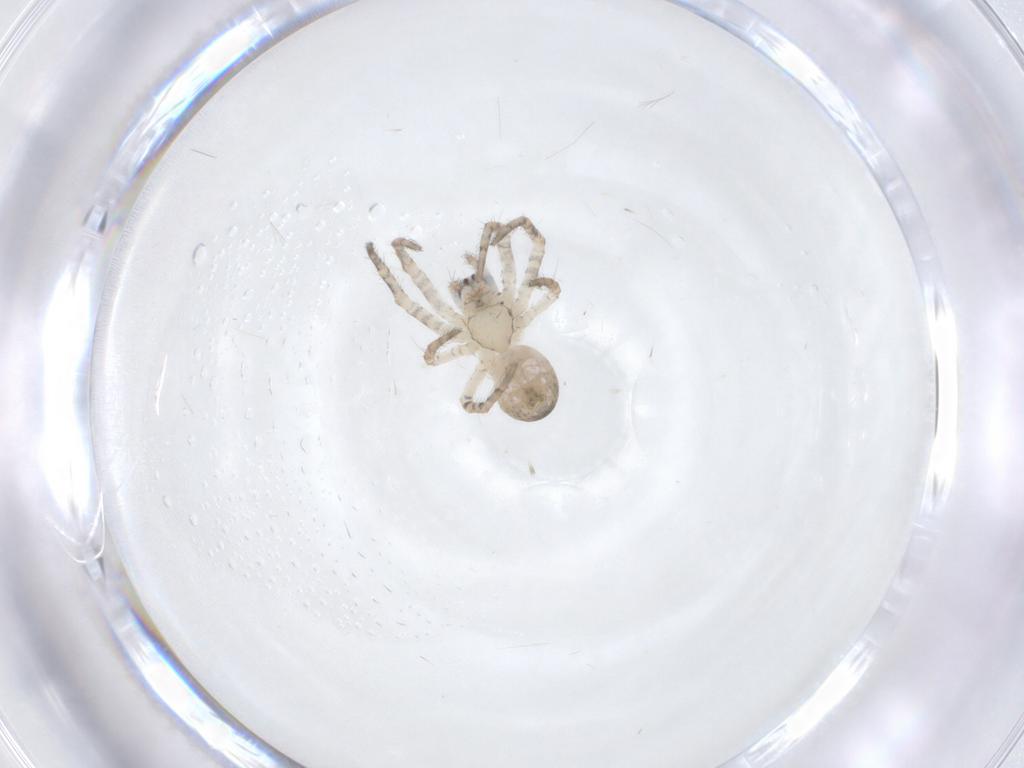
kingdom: Animalia
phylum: Arthropoda
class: Arachnida
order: Araneae
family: Araneidae
